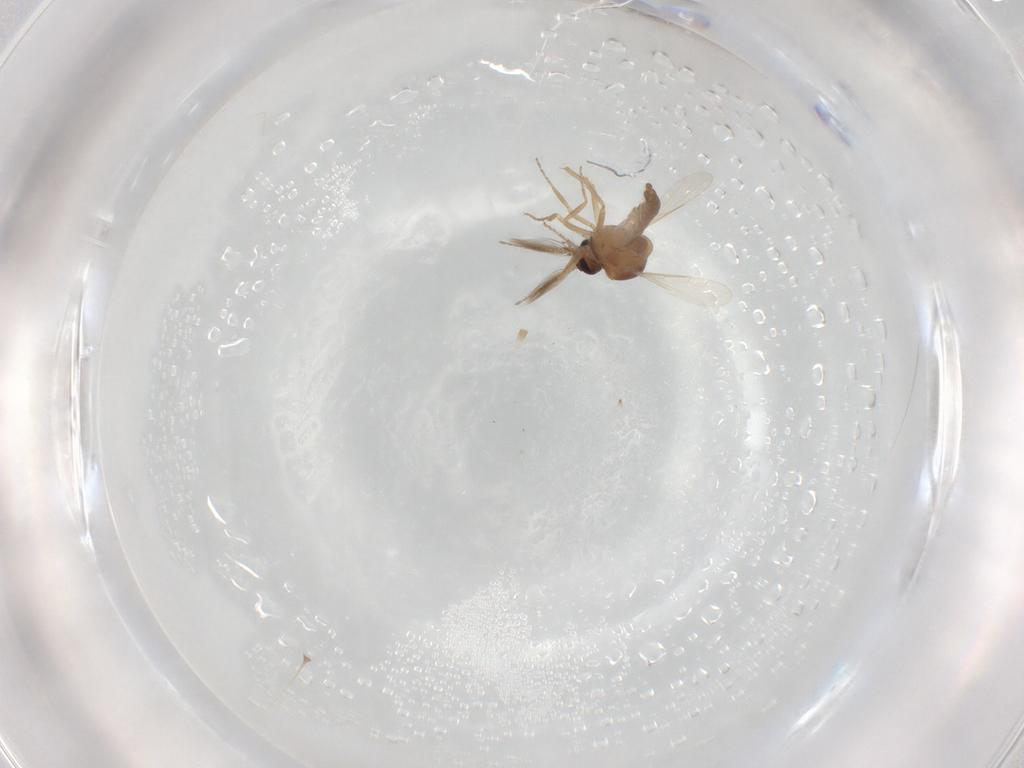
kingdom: Animalia
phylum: Arthropoda
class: Insecta
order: Diptera
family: Ceratopogonidae
